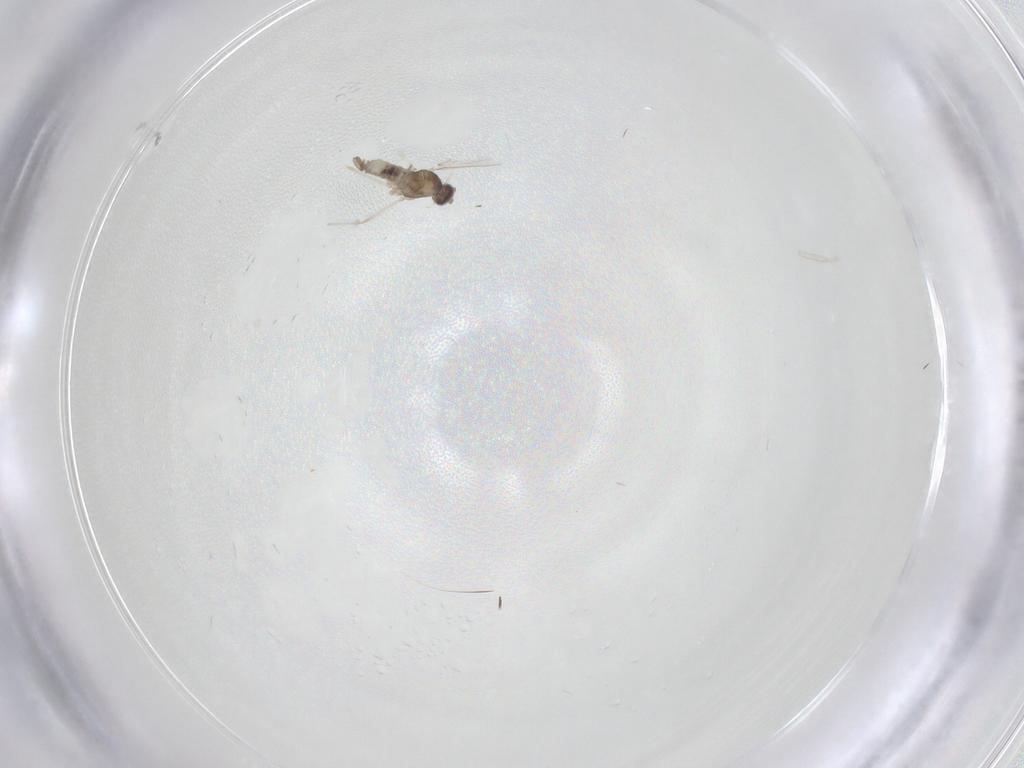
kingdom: Animalia
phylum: Arthropoda
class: Insecta
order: Diptera
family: Cecidomyiidae
